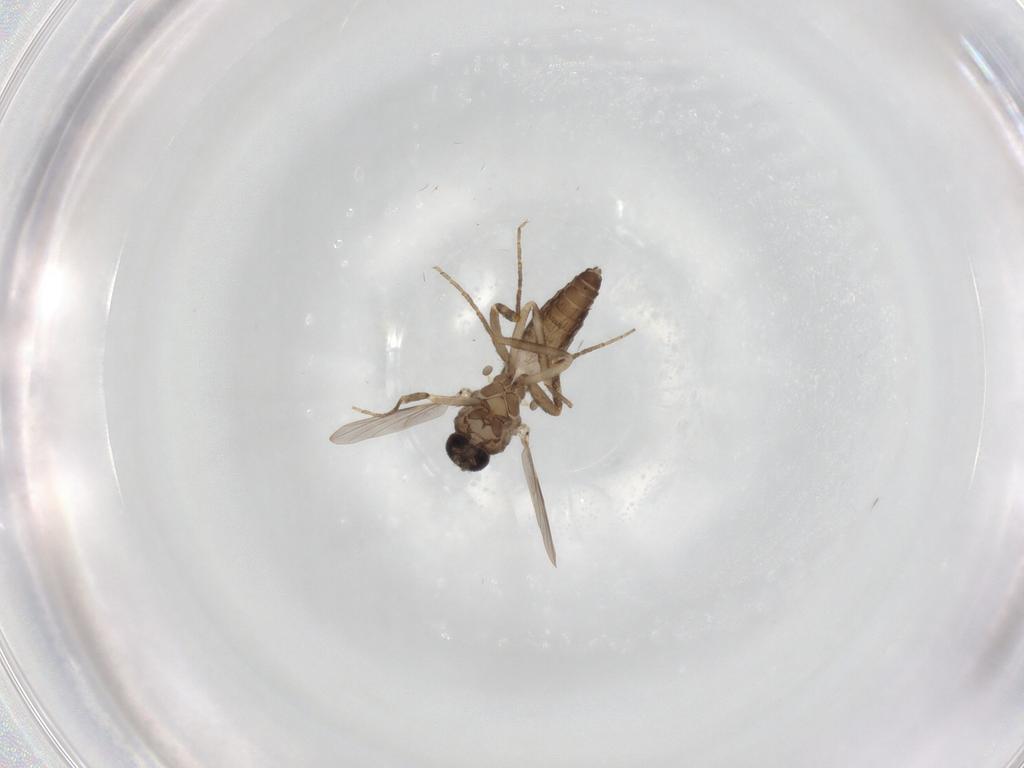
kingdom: Animalia
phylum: Arthropoda
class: Insecta
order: Diptera
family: Ceratopogonidae
